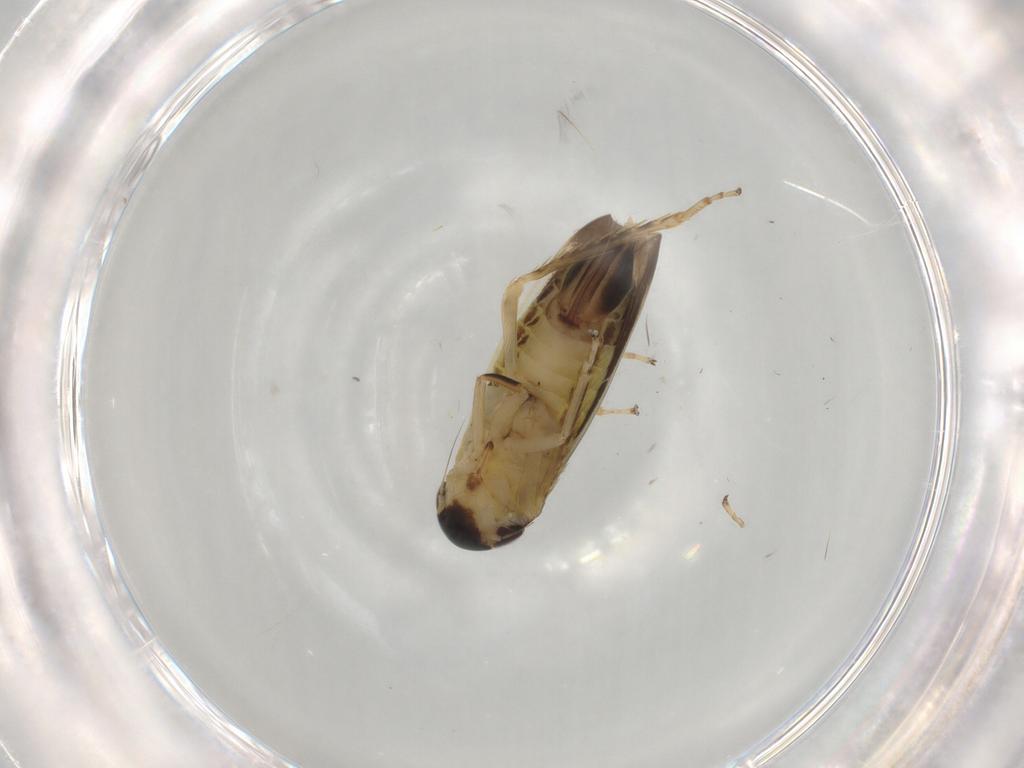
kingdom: Animalia
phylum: Arthropoda
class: Insecta
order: Hemiptera
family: Cicadellidae
